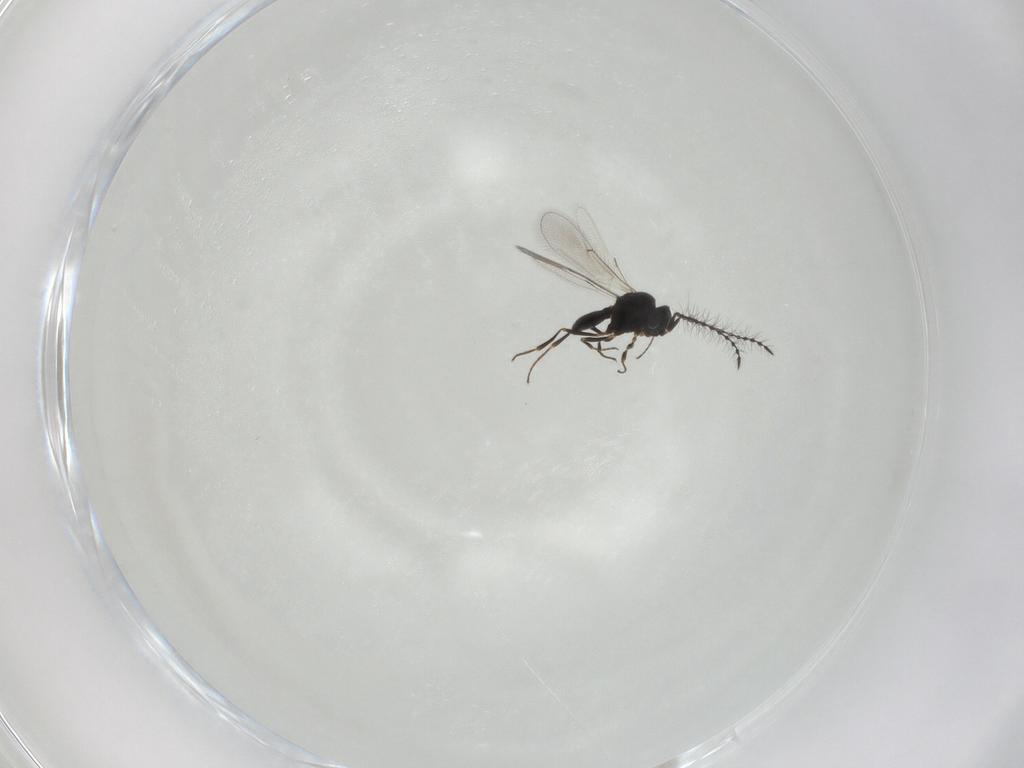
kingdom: Animalia
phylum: Arthropoda
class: Insecta
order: Hymenoptera
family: Scelionidae
